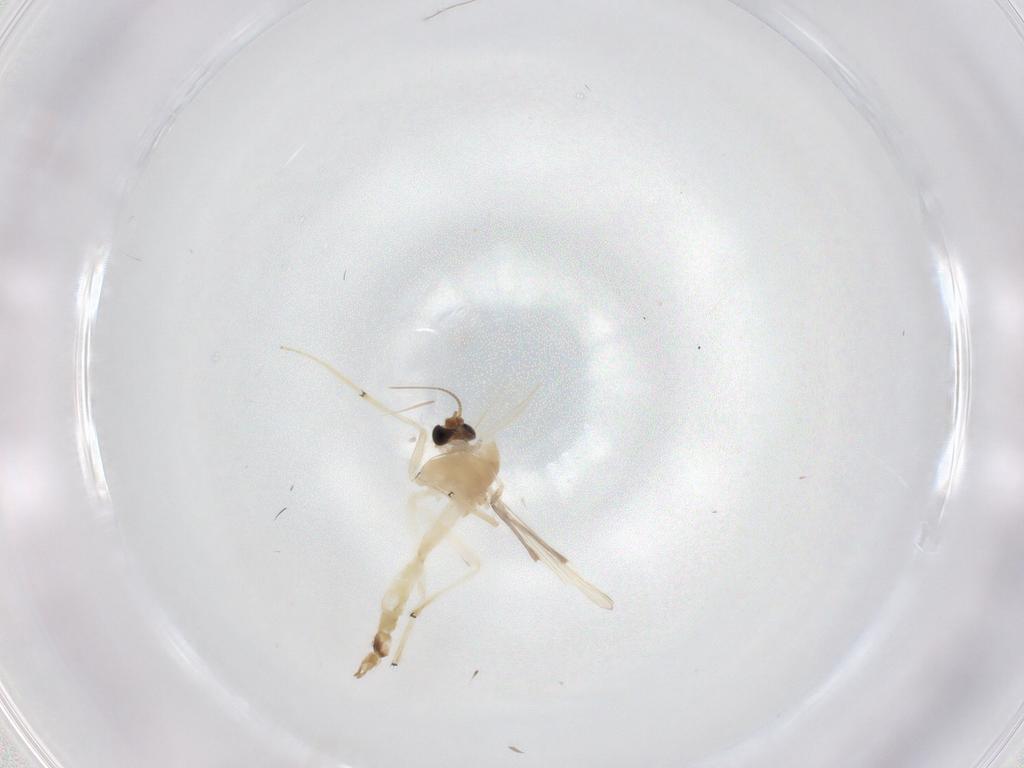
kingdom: Animalia
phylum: Arthropoda
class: Insecta
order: Diptera
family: Chironomidae
